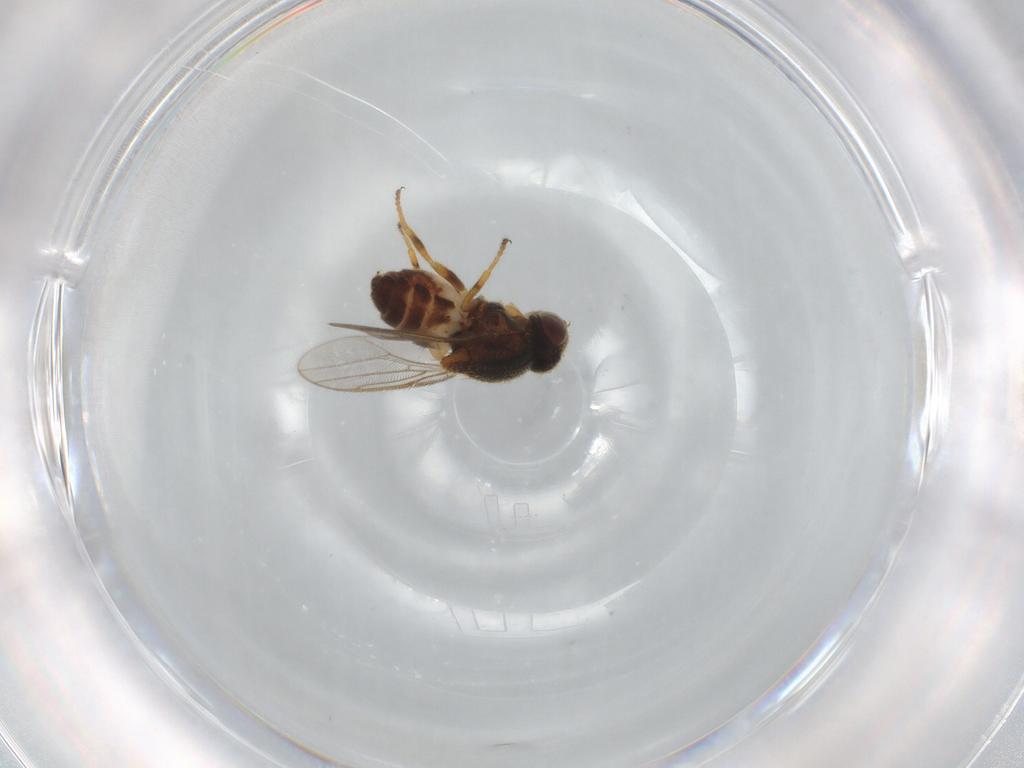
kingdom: Animalia
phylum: Arthropoda
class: Insecta
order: Diptera
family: Chloropidae
